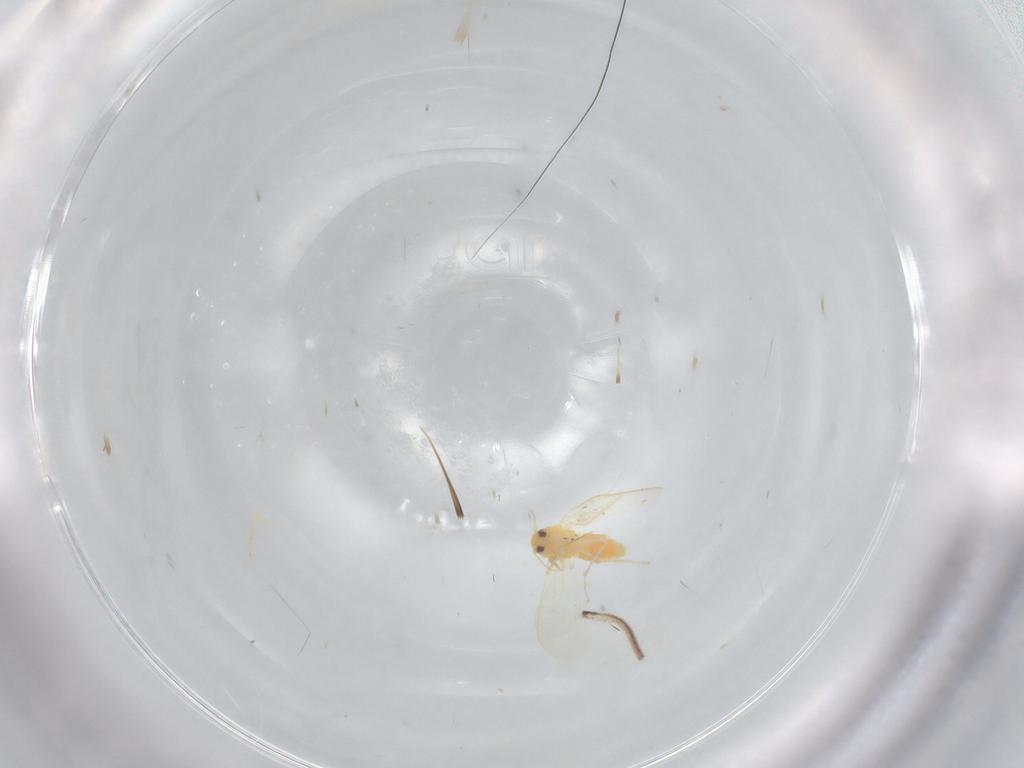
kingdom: Animalia
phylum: Arthropoda
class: Insecta
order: Hemiptera
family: Aleyrodidae
